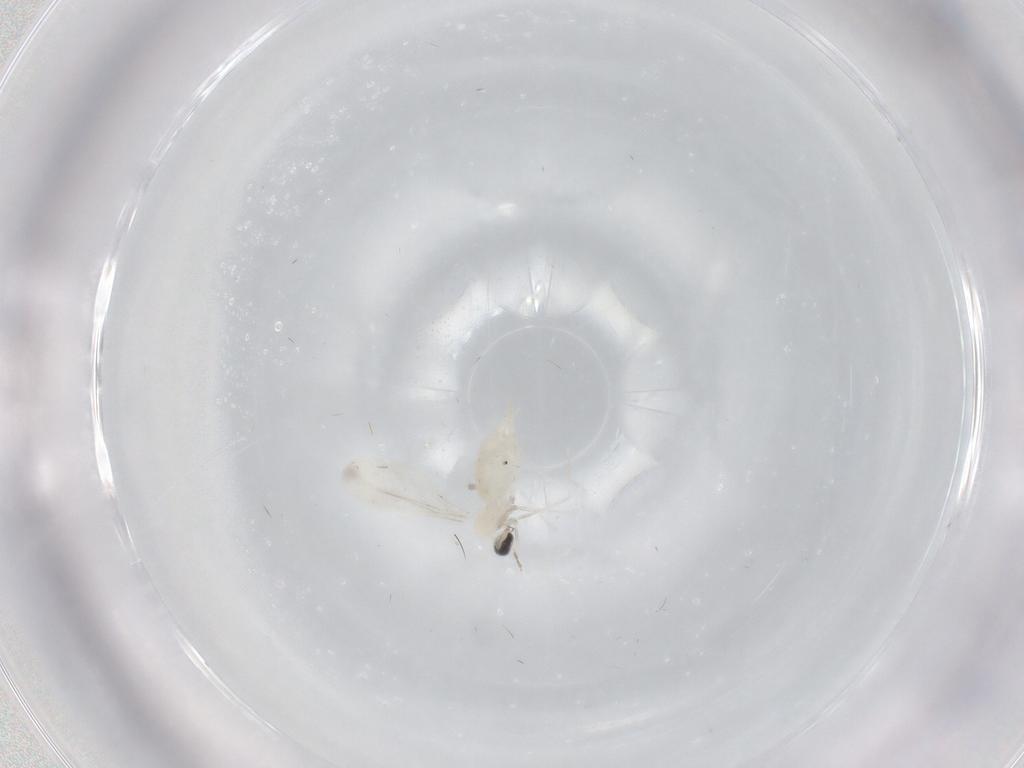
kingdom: Animalia
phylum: Arthropoda
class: Insecta
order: Diptera
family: Cecidomyiidae
